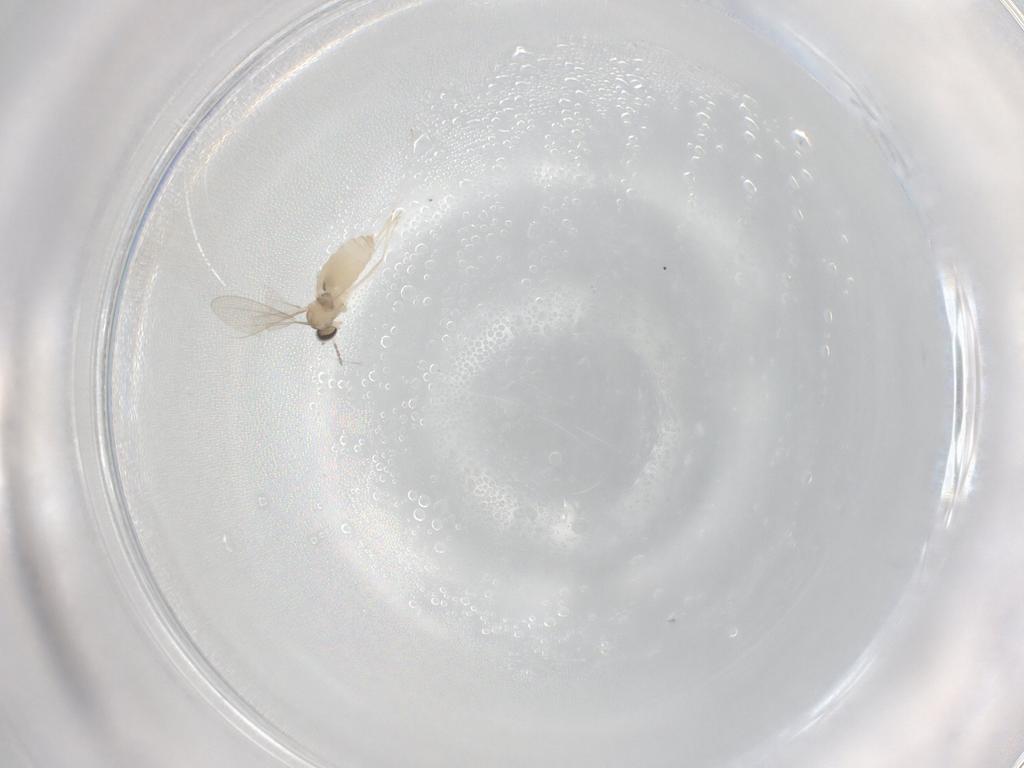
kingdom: Animalia
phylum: Arthropoda
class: Insecta
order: Diptera
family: Cecidomyiidae
